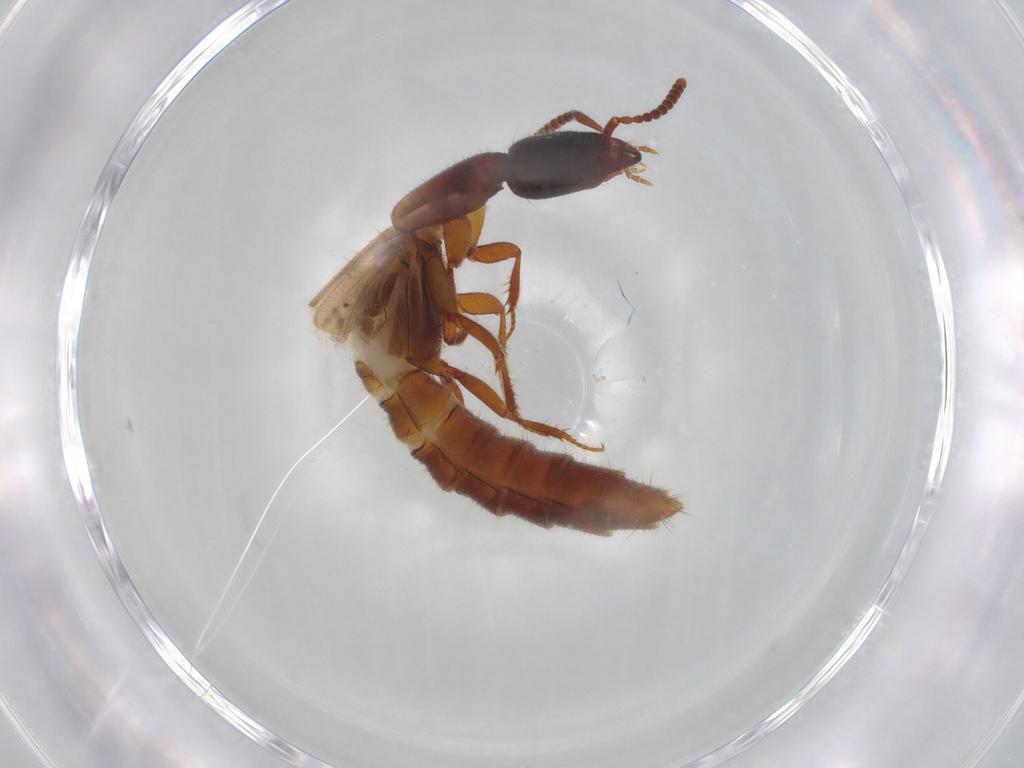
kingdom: Animalia
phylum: Arthropoda
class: Insecta
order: Coleoptera
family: Staphylinidae
